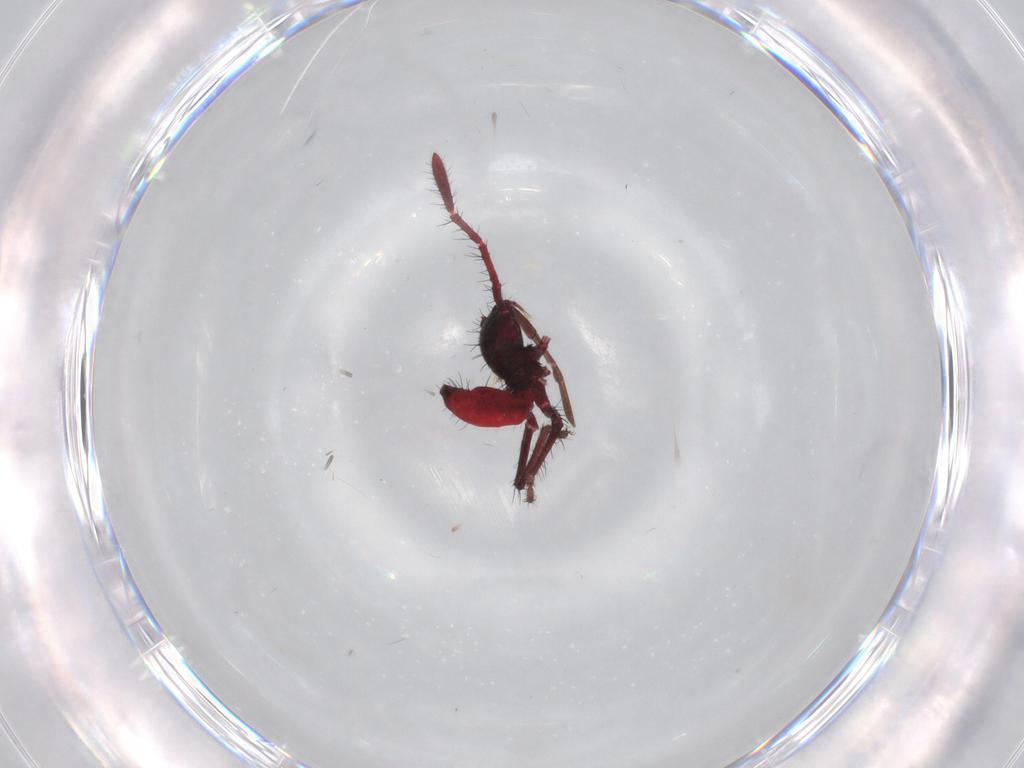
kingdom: Animalia
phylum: Arthropoda
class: Insecta
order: Hemiptera
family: Coreidae
